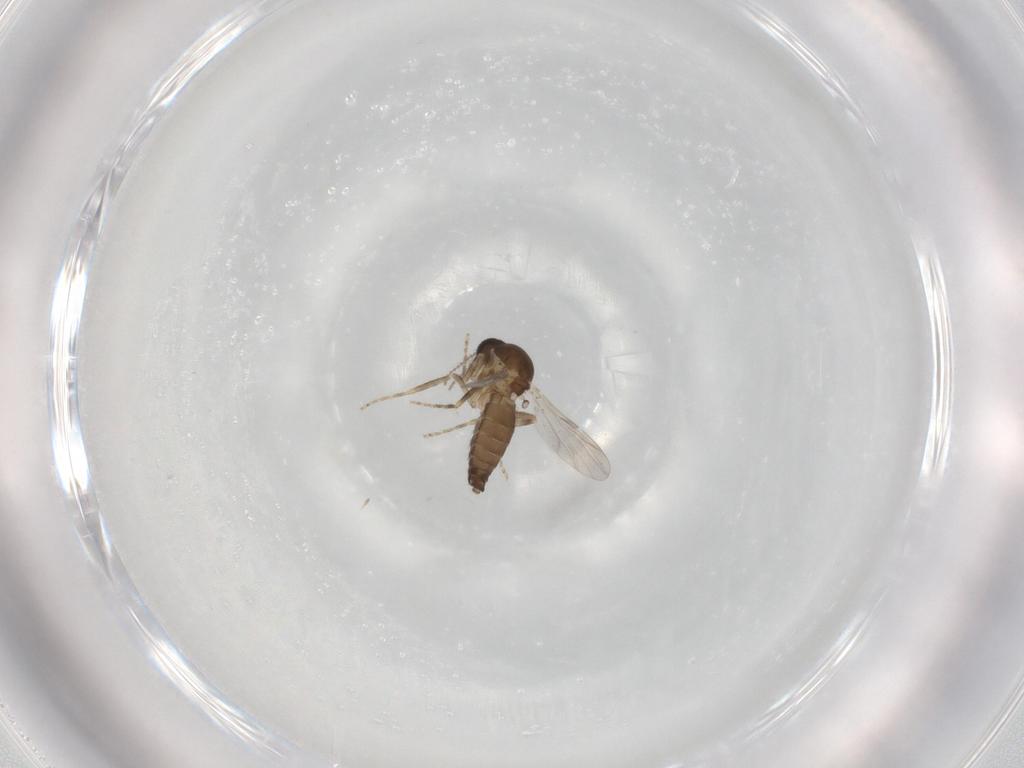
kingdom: Animalia
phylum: Arthropoda
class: Insecta
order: Diptera
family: Ceratopogonidae
